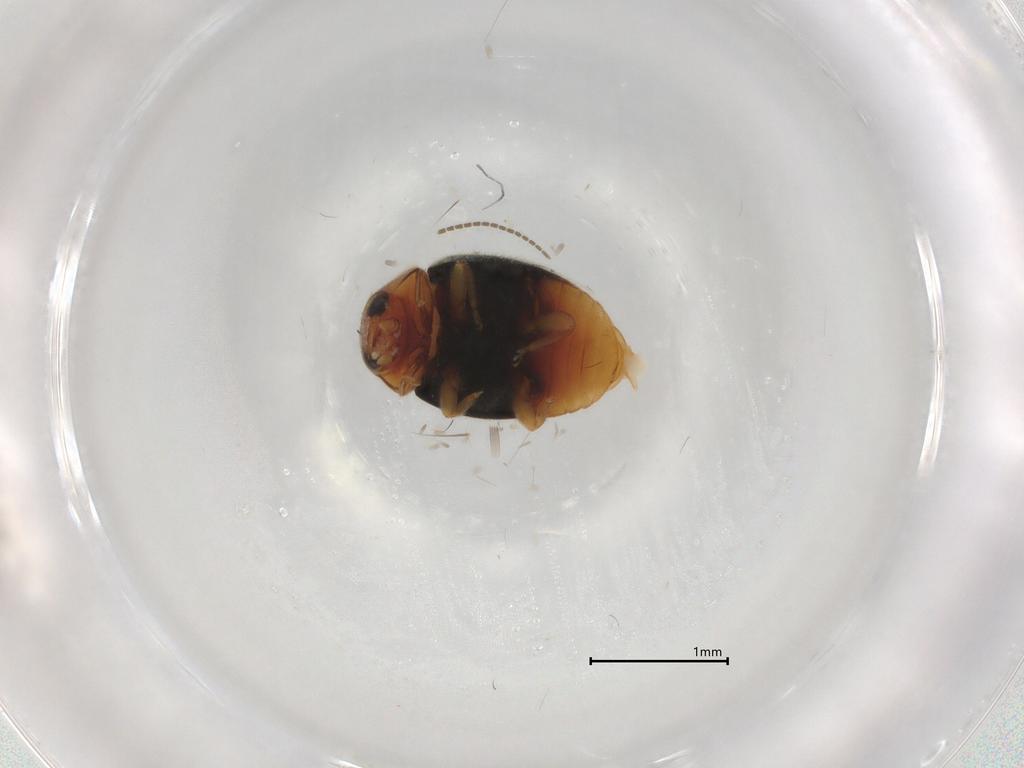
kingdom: Animalia
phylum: Arthropoda
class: Insecta
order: Coleoptera
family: Coccinellidae
